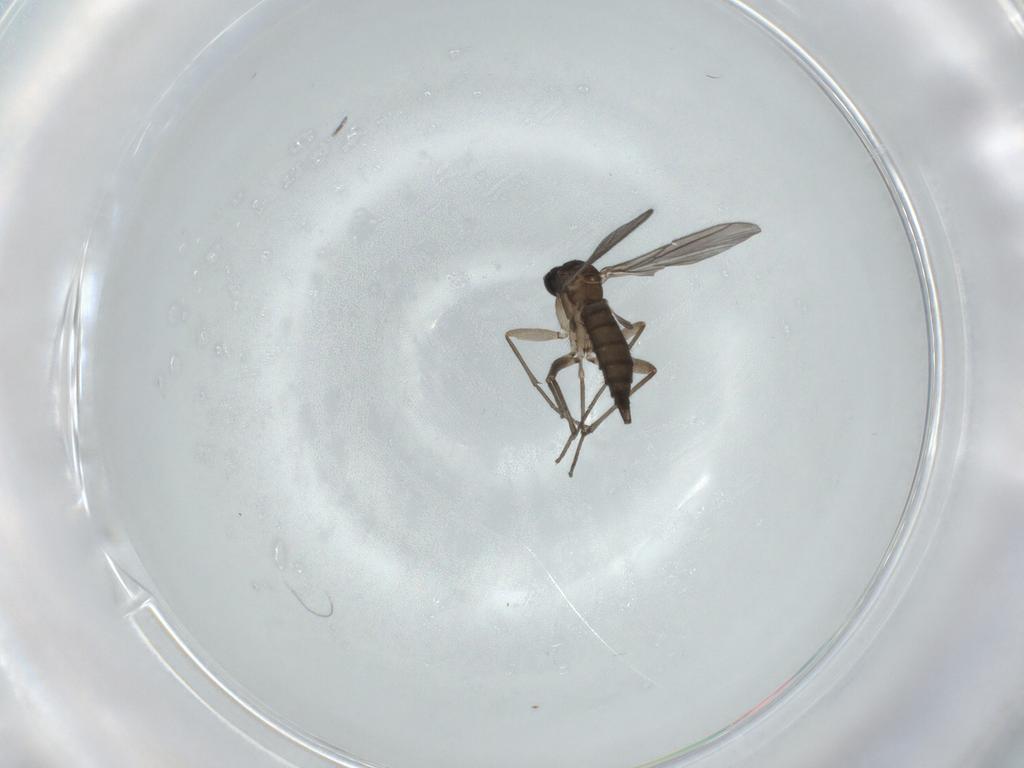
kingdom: Animalia
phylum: Arthropoda
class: Insecta
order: Diptera
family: Sciaridae
